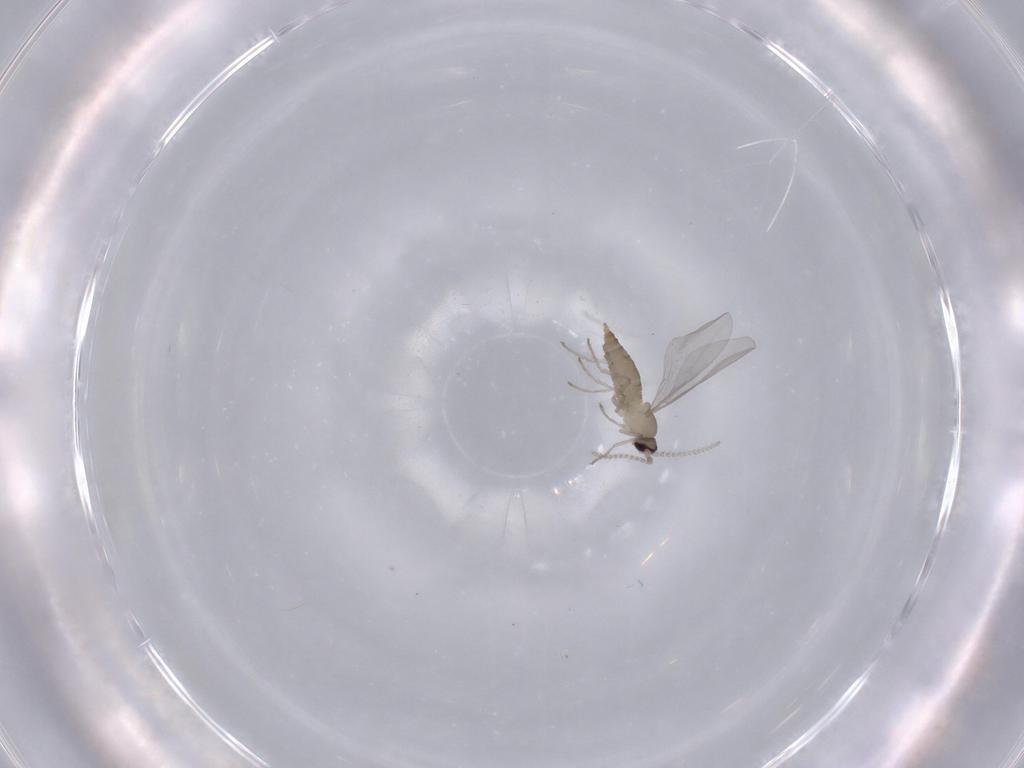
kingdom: Animalia
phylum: Arthropoda
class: Insecta
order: Diptera
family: Cecidomyiidae
